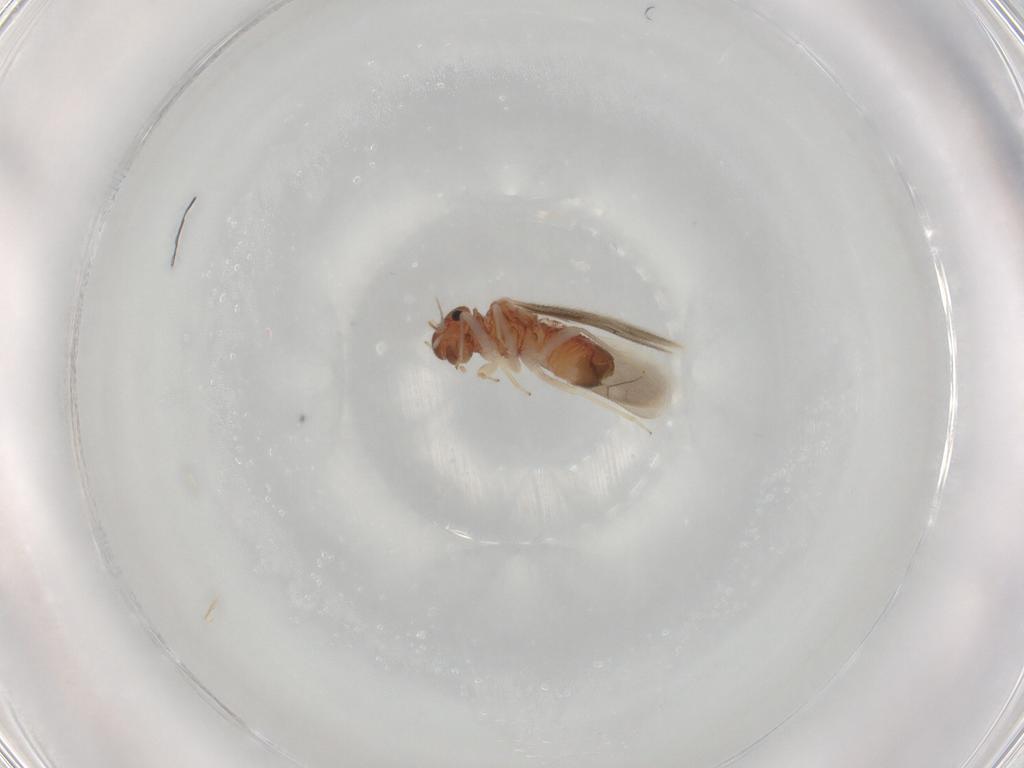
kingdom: Animalia
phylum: Arthropoda
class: Insecta
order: Psocodea
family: Archipsocidae
